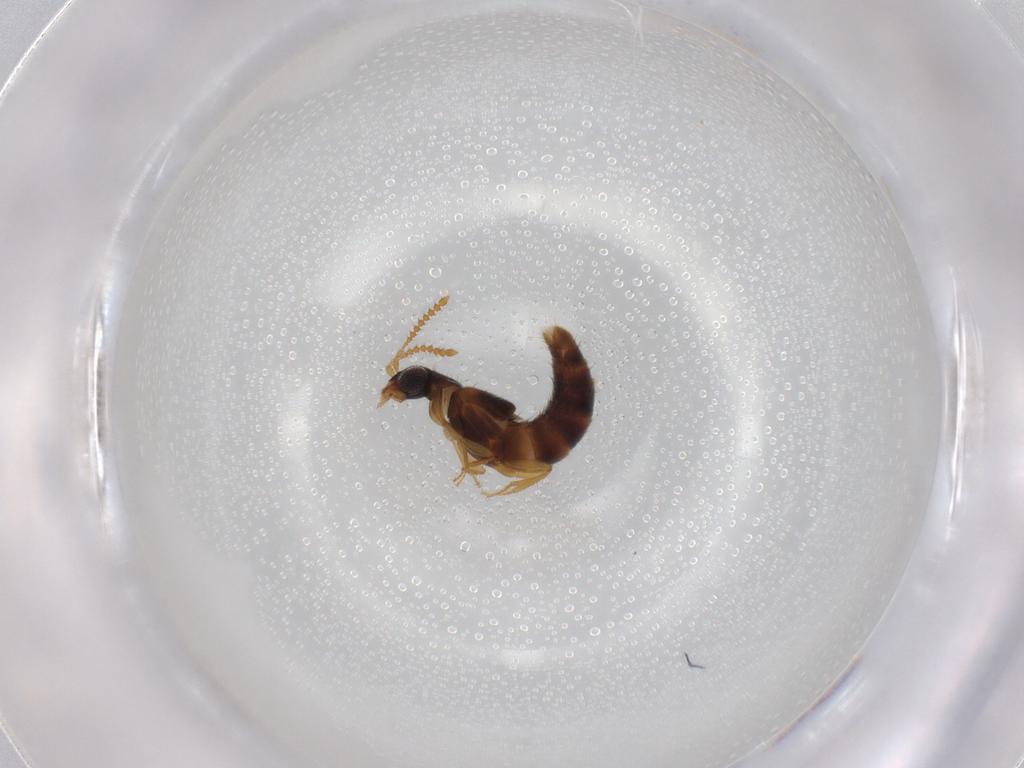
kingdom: Animalia
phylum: Arthropoda
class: Insecta
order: Coleoptera
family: Staphylinidae
